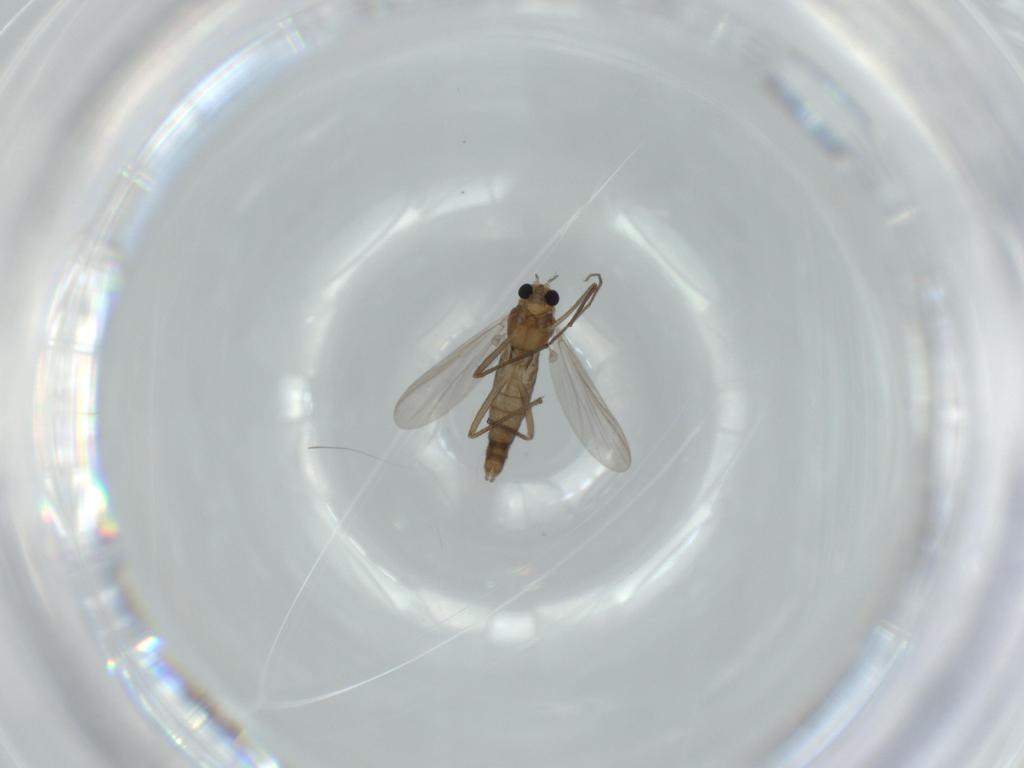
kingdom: Animalia
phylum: Arthropoda
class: Insecta
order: Diptera
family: Chironomidae
